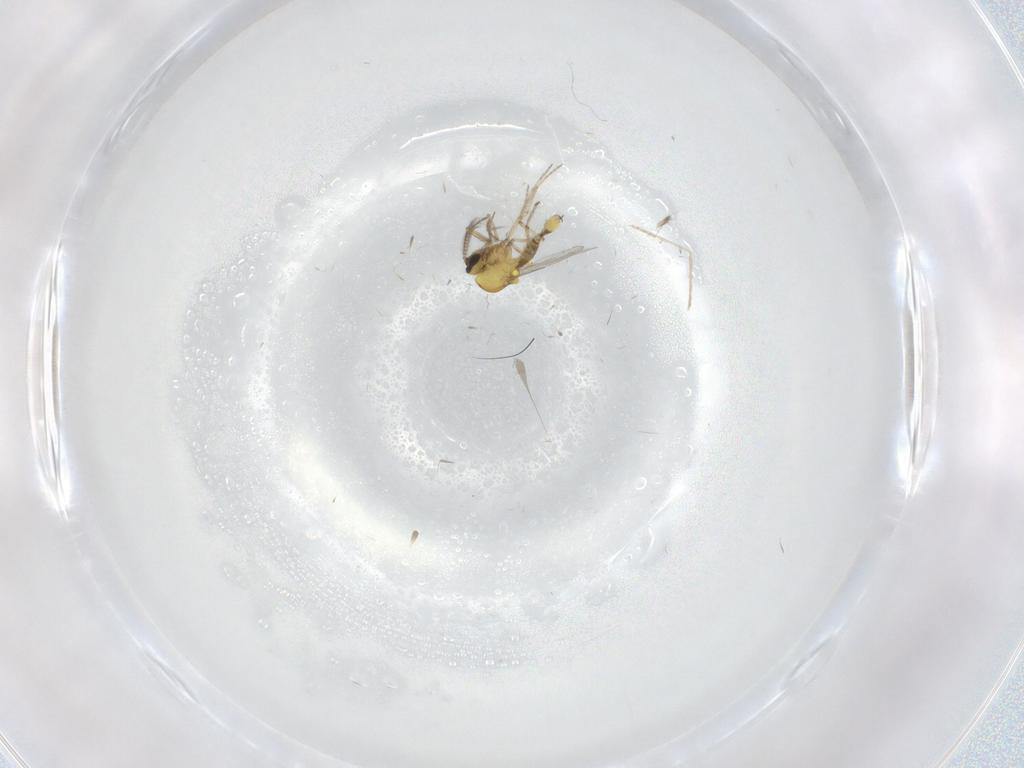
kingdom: Animalia
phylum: Arthropoda
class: Insecta
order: Diptera
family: Cecidomyiidae
